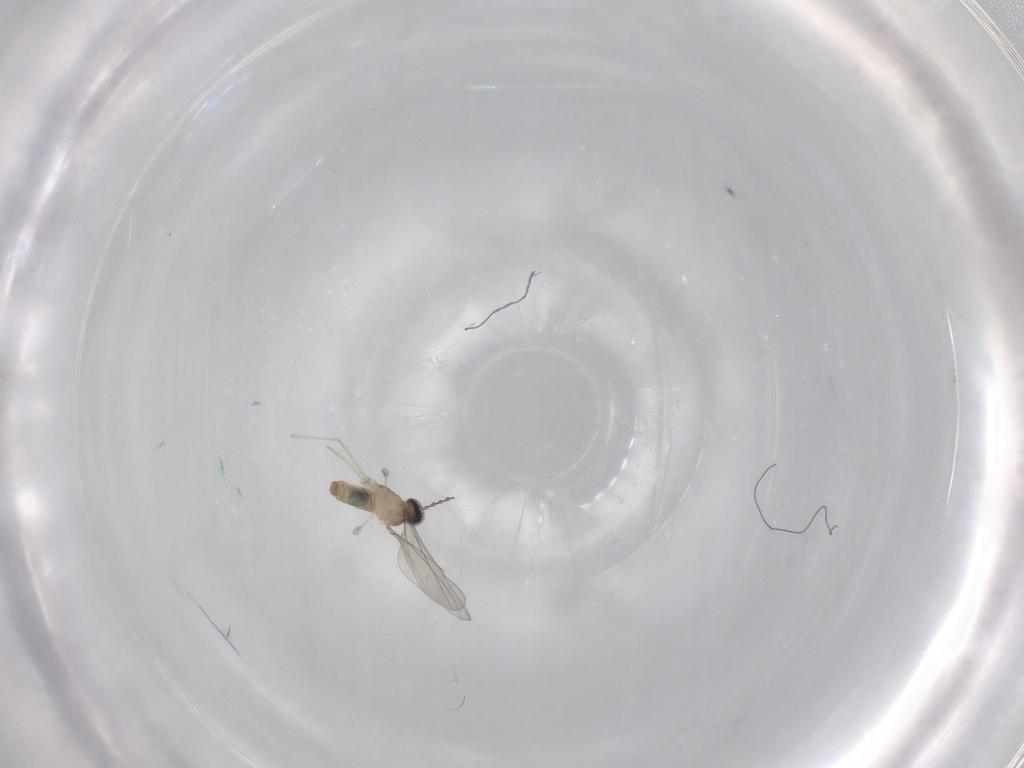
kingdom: Animalia
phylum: Arthropoda
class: Insecta
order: Diptera
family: Cecidomyiidae
